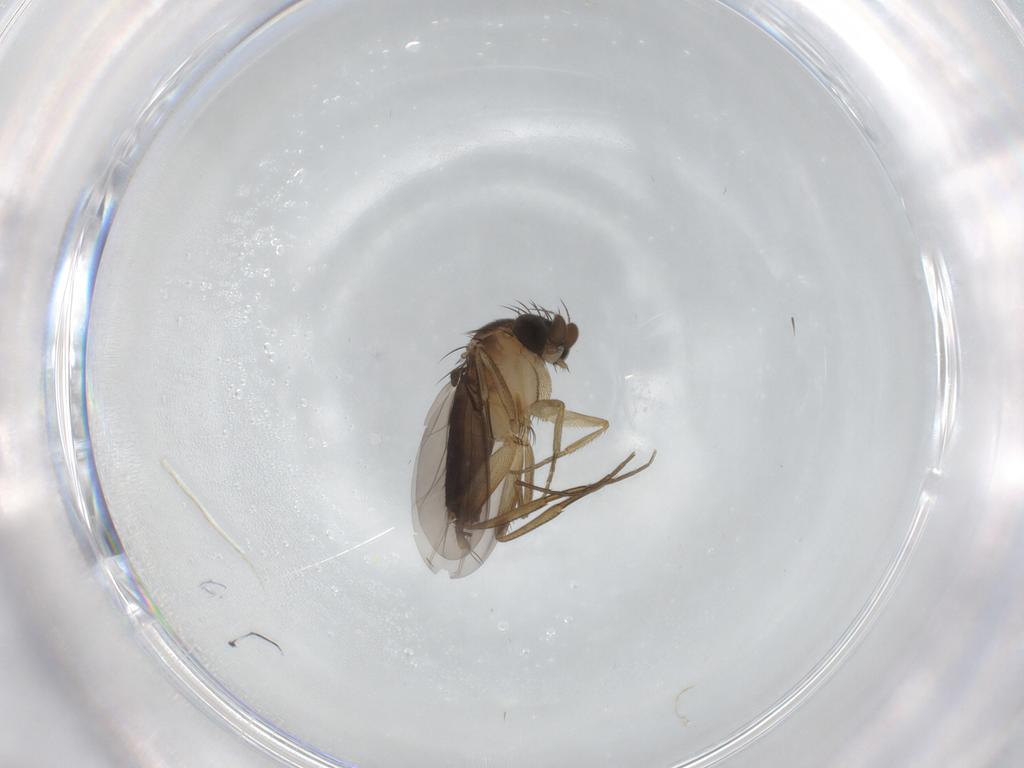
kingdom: Animalia
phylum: Arthropoda
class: Insecta
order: Diptera
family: Phoridae
